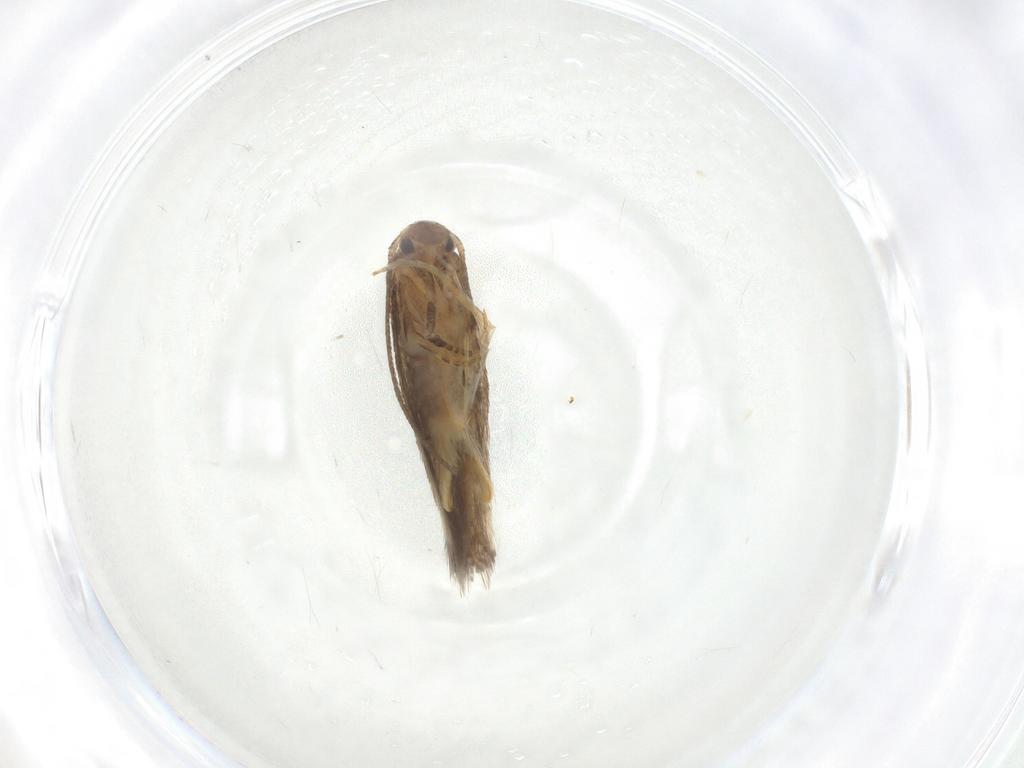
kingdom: Animalia
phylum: Arthropoda
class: Insecta
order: Lepidoptera
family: Elachistidae
